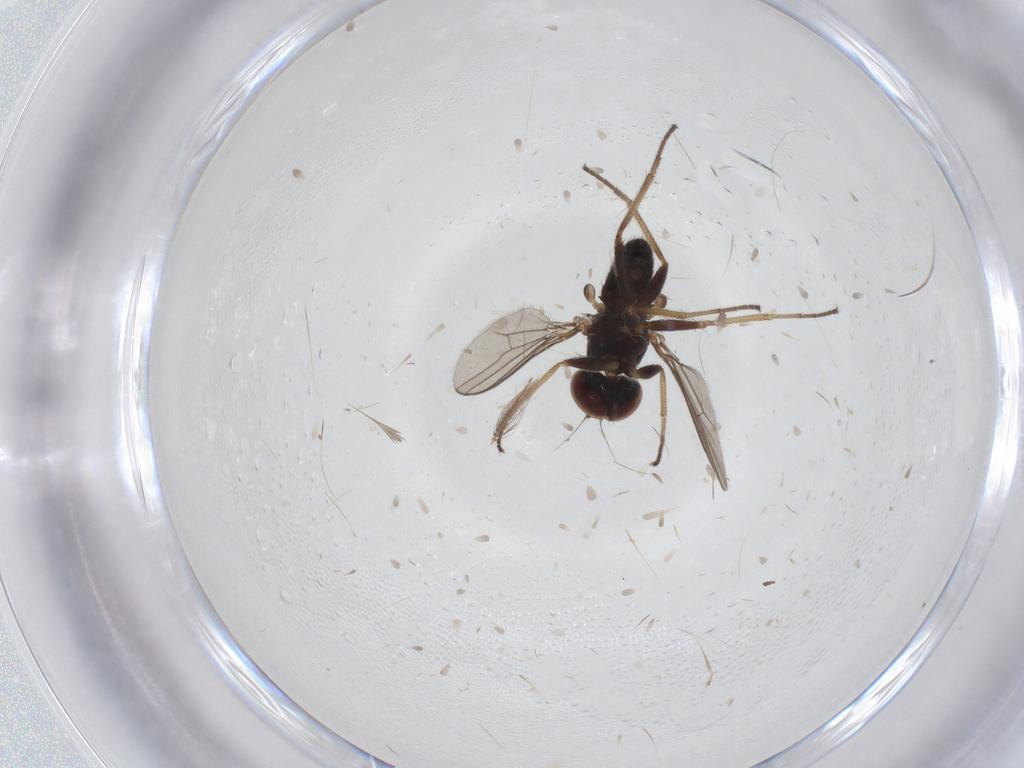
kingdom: Animalia
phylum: Arthropoda
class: Insecta
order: Diptera
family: Dolichopodidae
